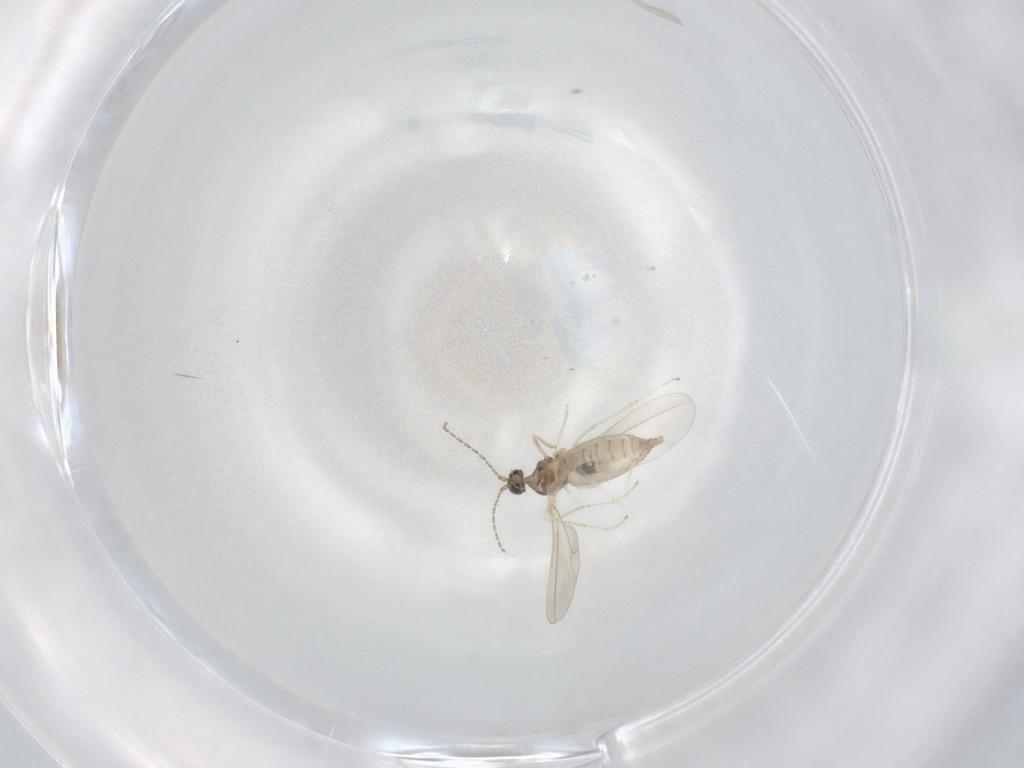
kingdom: Animalia
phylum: Arthropoda
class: Insecta
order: Diptera
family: Cecidomyiidae
